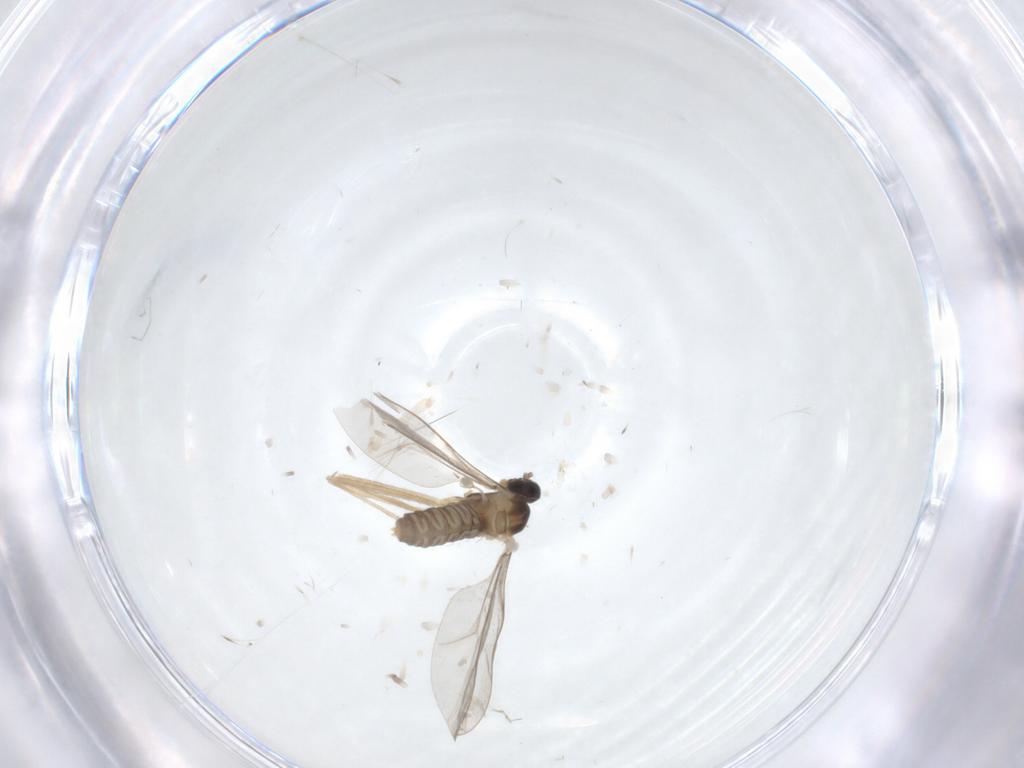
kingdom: Animalia
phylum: Arthropoda
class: Insecta
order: Diptera
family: Cecidomyiidae
